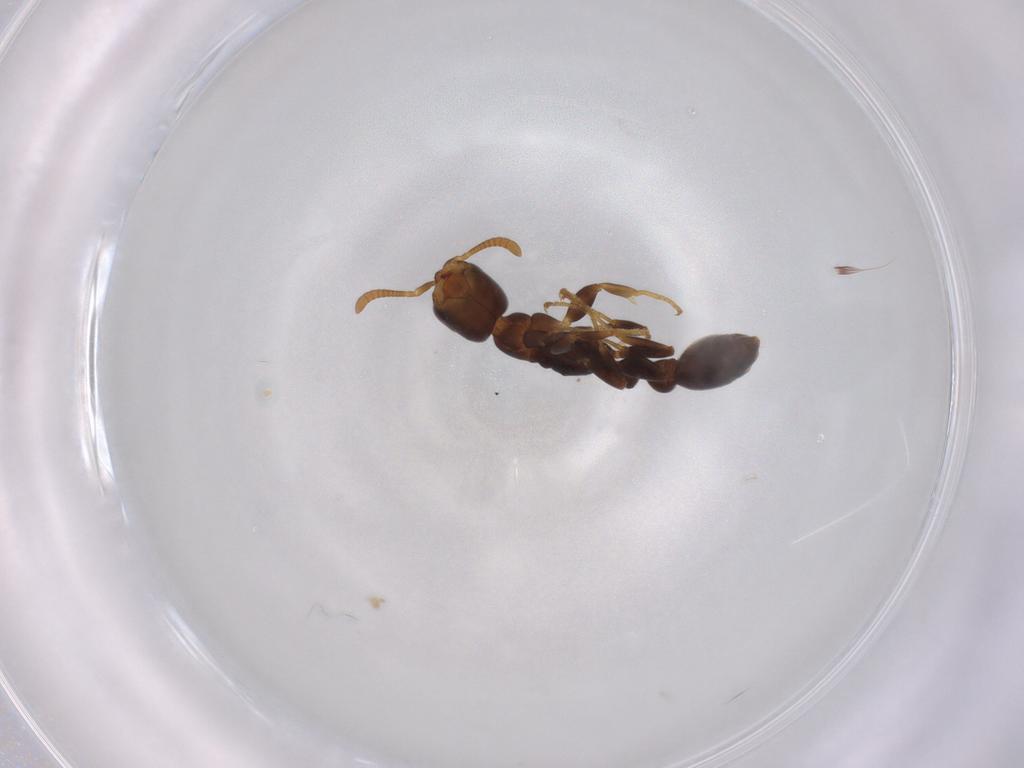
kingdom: Animalia
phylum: Arthropoda
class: Insecta
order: Hymenoptera
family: Formicidae
